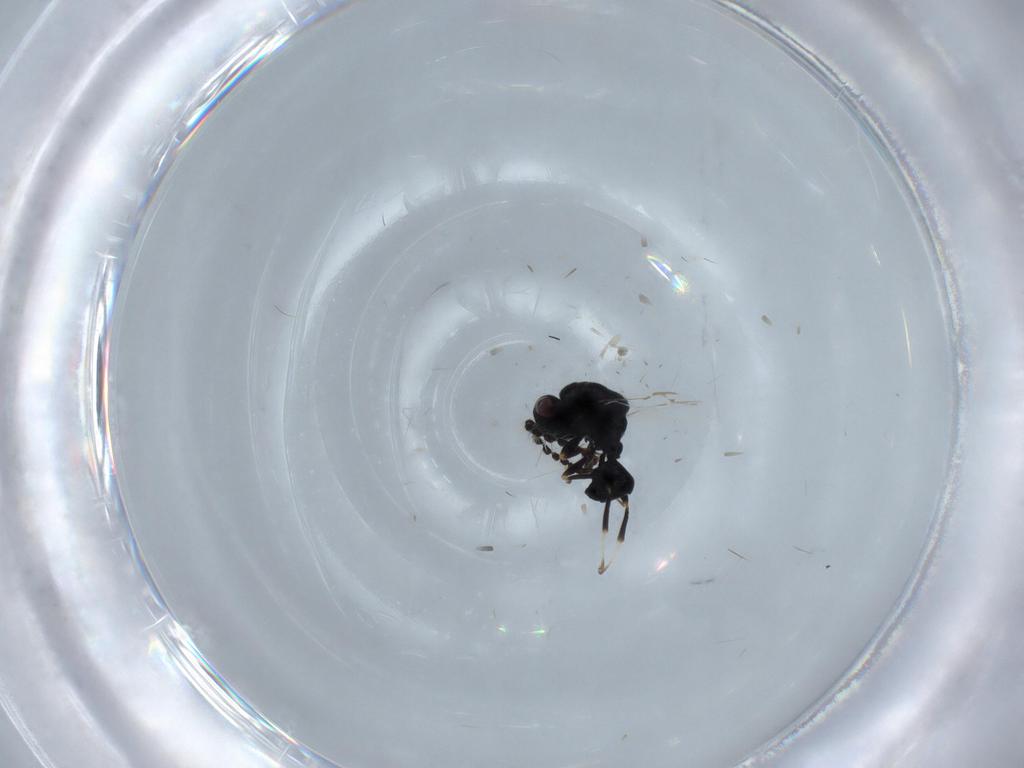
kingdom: Animalia
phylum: Arthropoda
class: Insecta
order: Hymenoptera
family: Eurytomidae
